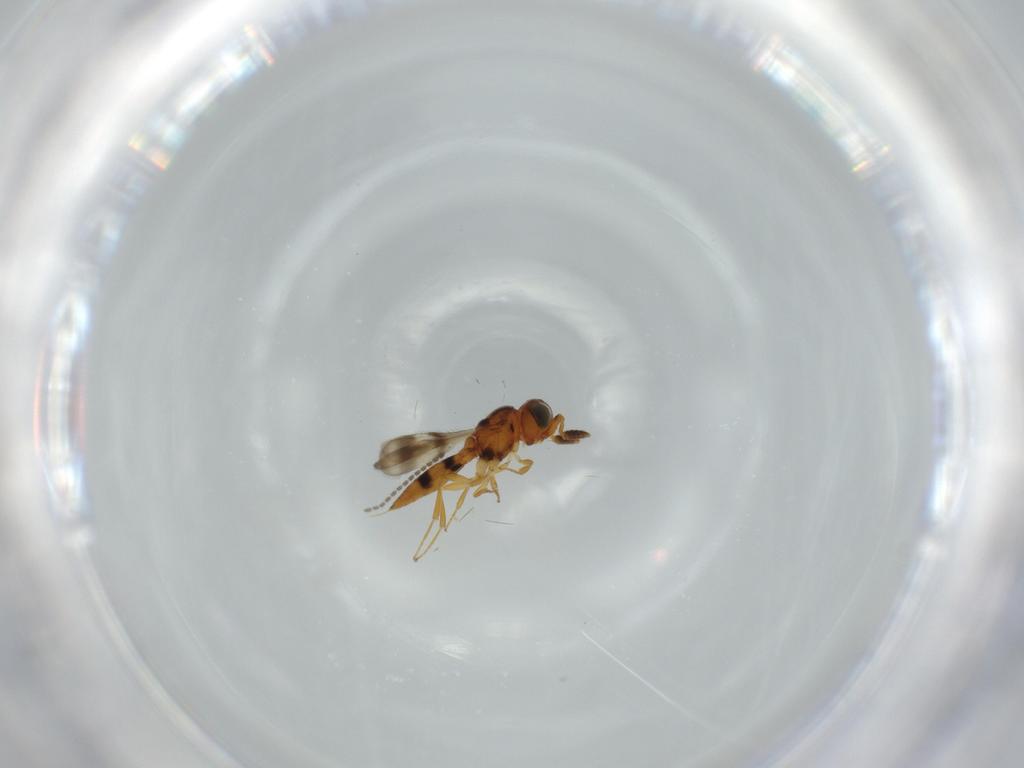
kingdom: Animalia
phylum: Arthropoda
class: Insecta
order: Hymenoptera
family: Scelionidae
